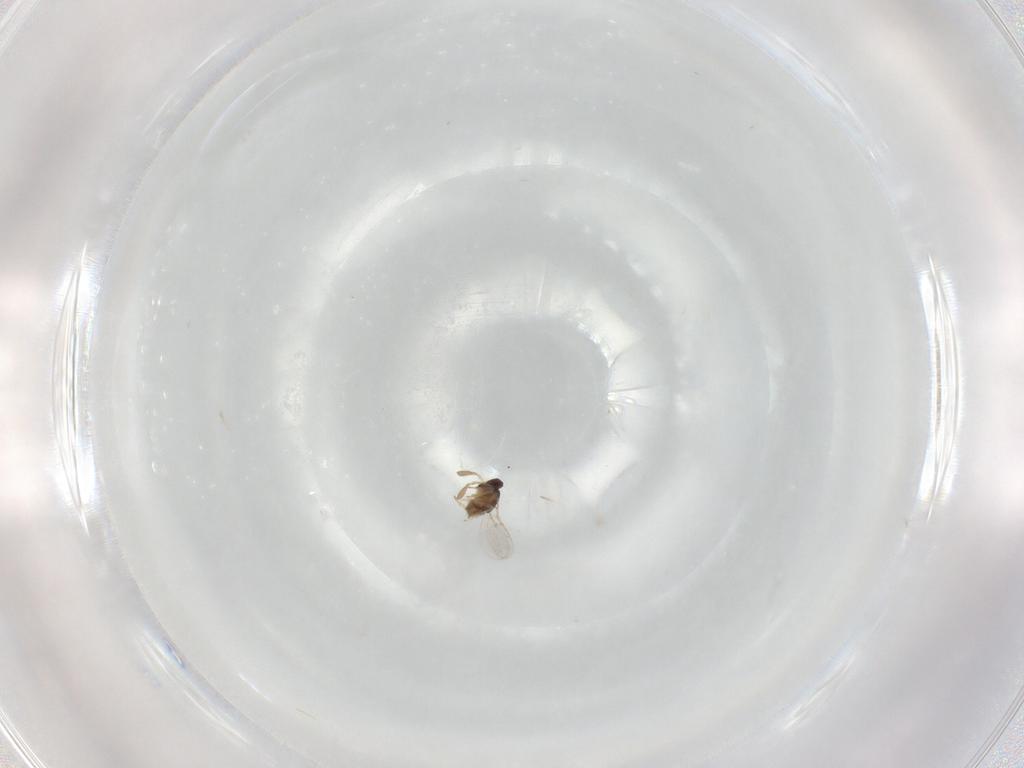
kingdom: Animalia
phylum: Arthropoda
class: Insecta
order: Hymenoptera
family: Encyrtidae
